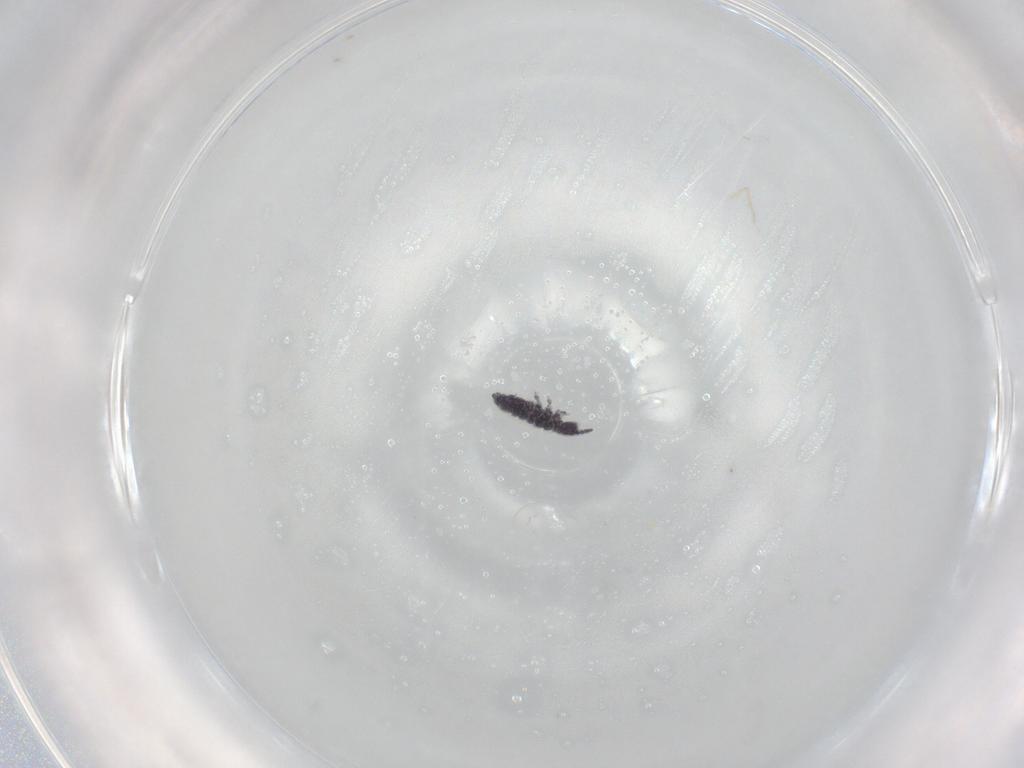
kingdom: Animalia
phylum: Arthropoda
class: Collembola
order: Poduromorpha
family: Brachystomellidae
